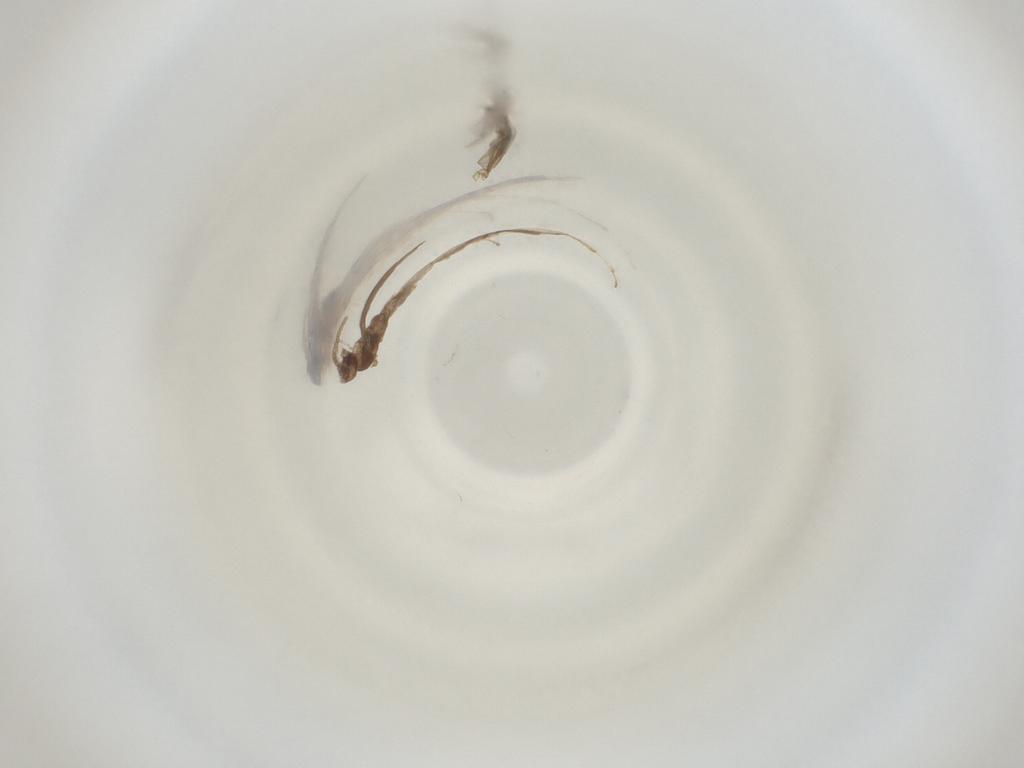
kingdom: Animalia
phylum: Arthropoda
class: Insecta
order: Diptera
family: Cecidomyiidae
